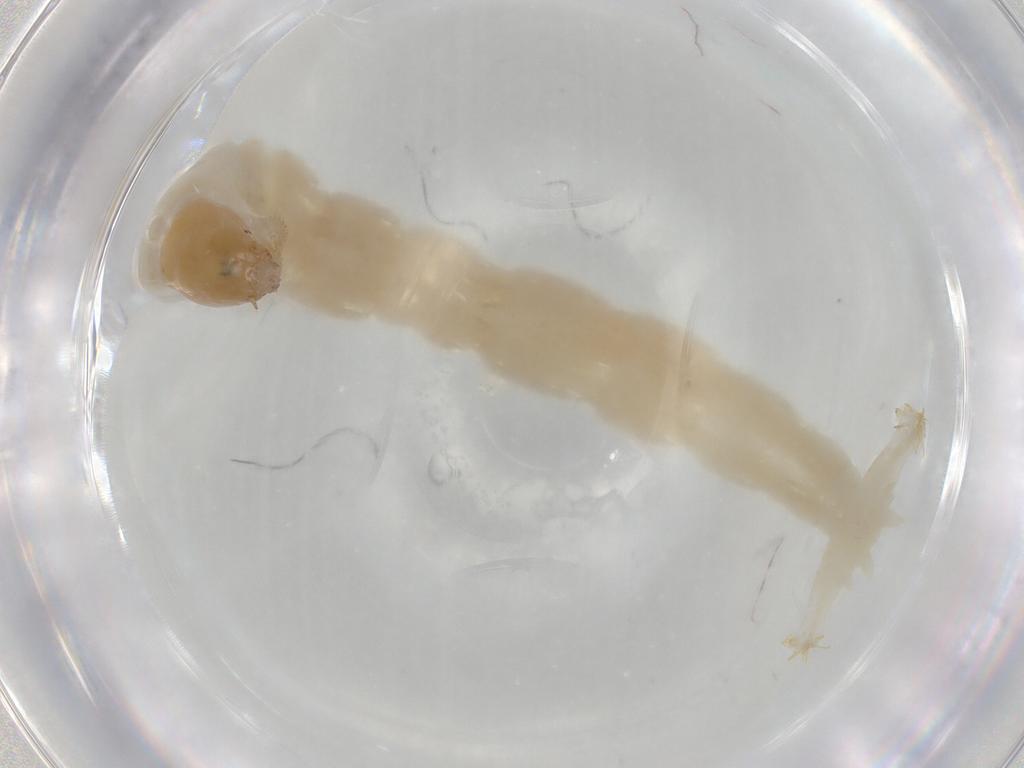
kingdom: Animalia
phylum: Arthropoda
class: Insecta
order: Diptera
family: Chironomidae
